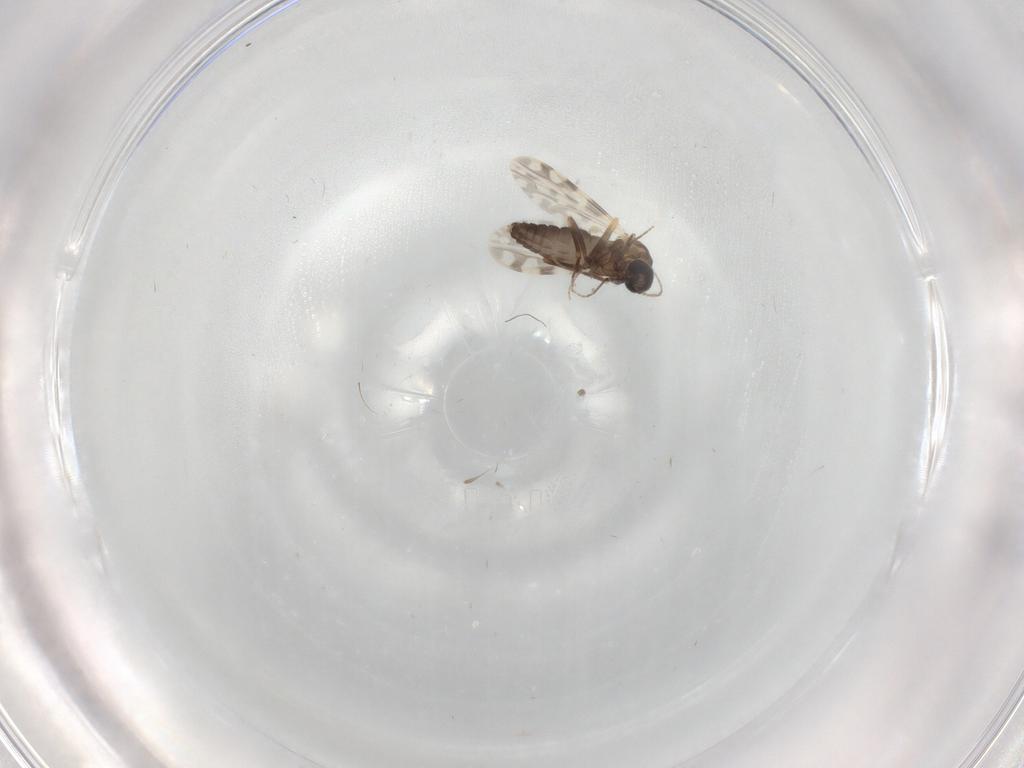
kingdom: Animalia
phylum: Arthropoda
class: Insecta
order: Diptera
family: Ceratopogonidae
